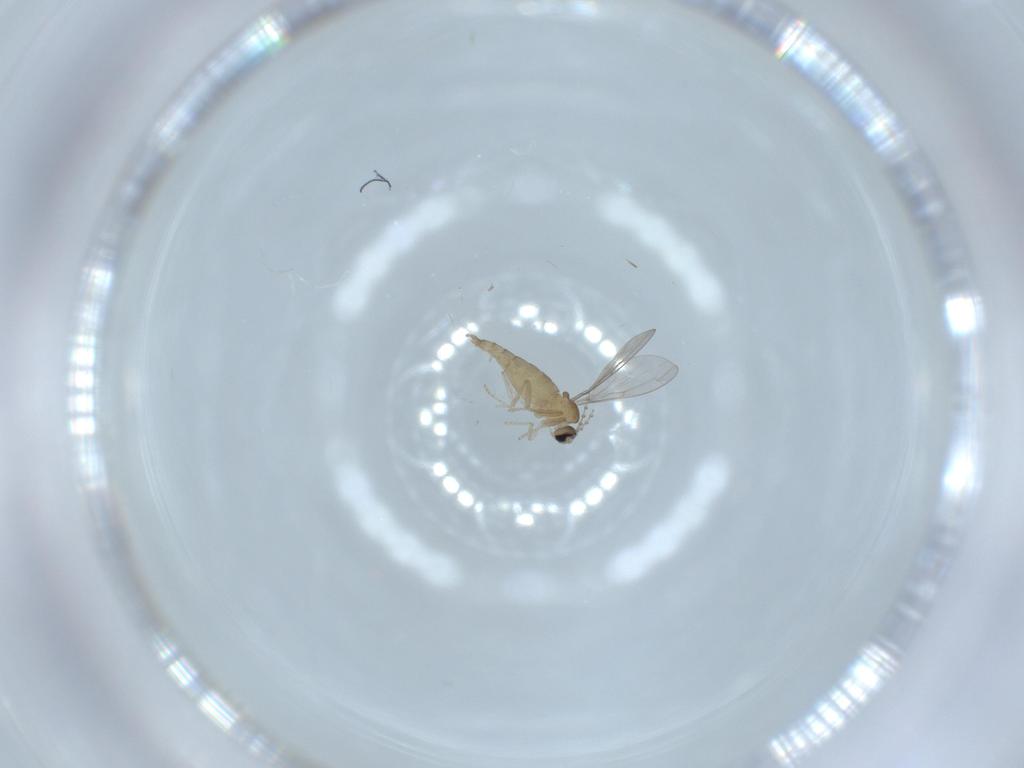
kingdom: Animalia
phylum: Arthropoda
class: Insecta
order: Diptera
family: Cecidomyiidae
